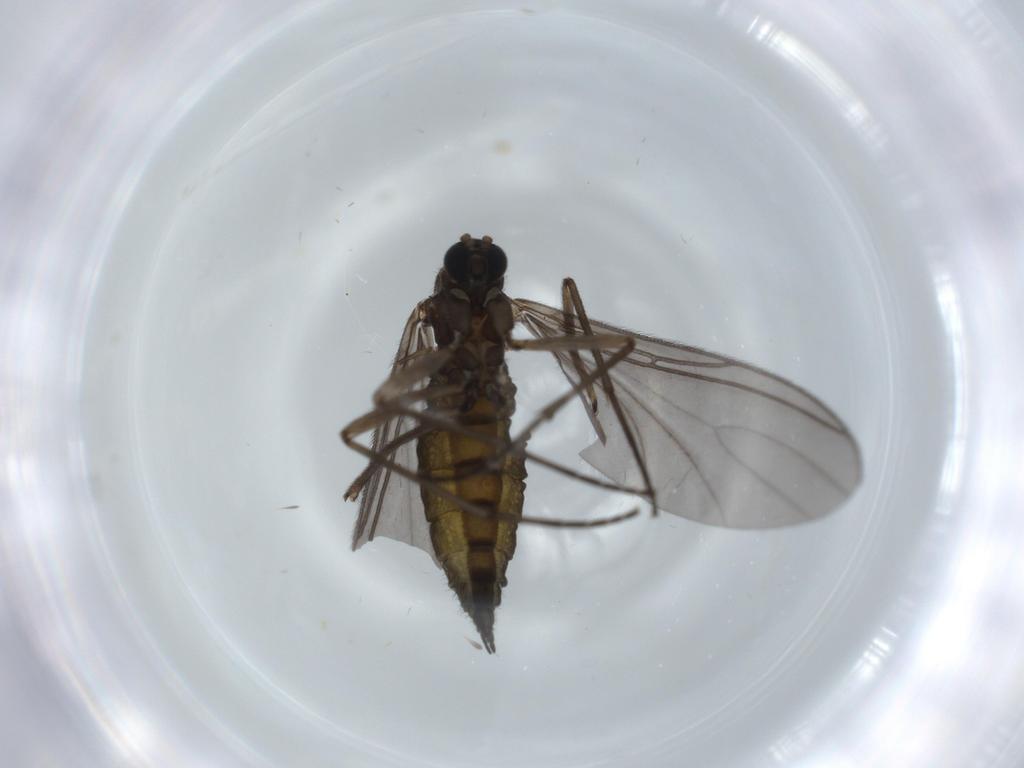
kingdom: Animalia
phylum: Arthropoda
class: Insecta
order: Diptera
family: Sciaridae
